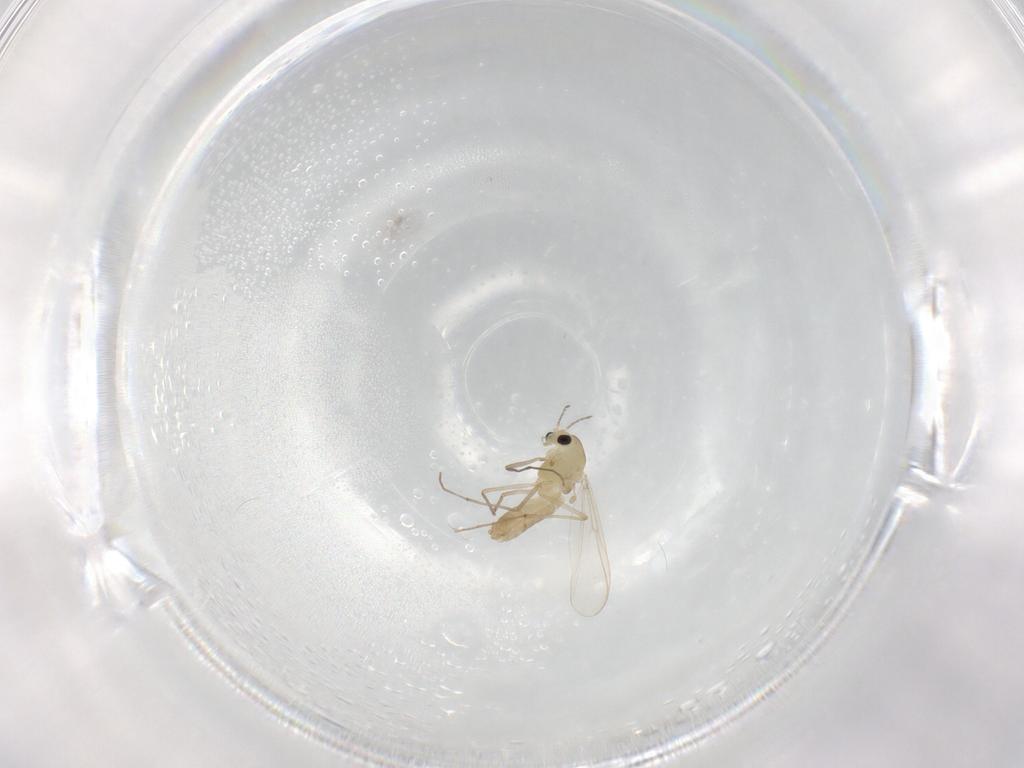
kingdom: Animalia
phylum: Arthropoda
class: Insecta
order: Diptera
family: Chironomidae
